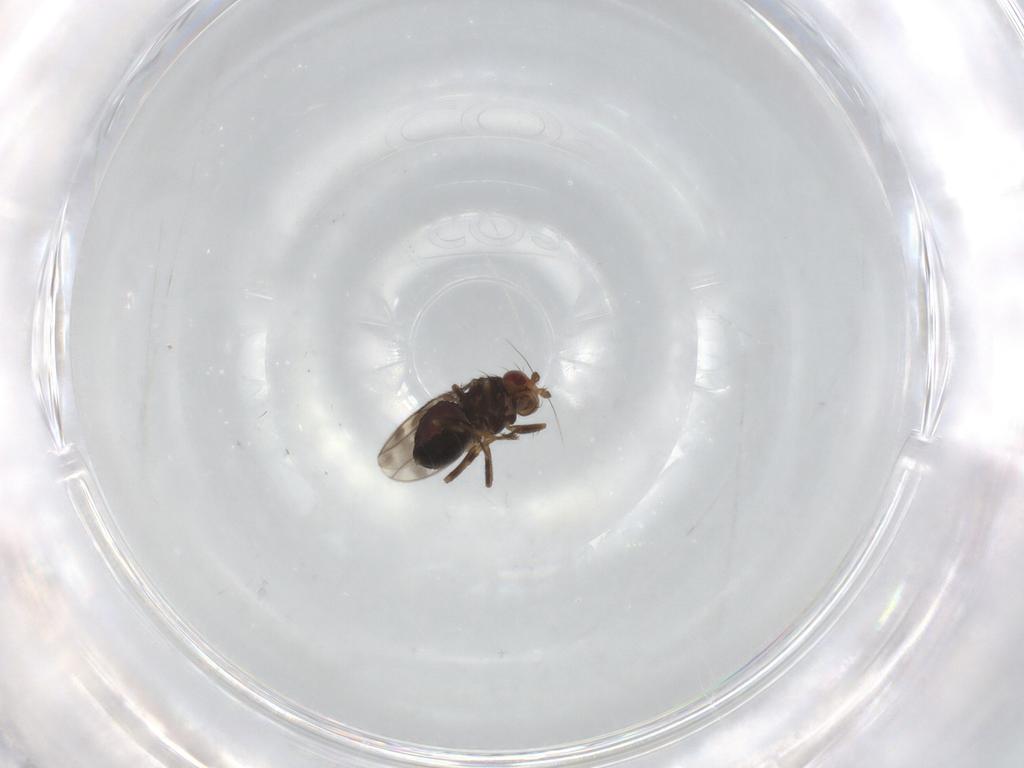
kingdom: Animalia
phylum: Arthropoda
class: Insecta
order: Diptera
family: Sphaeroceridae
